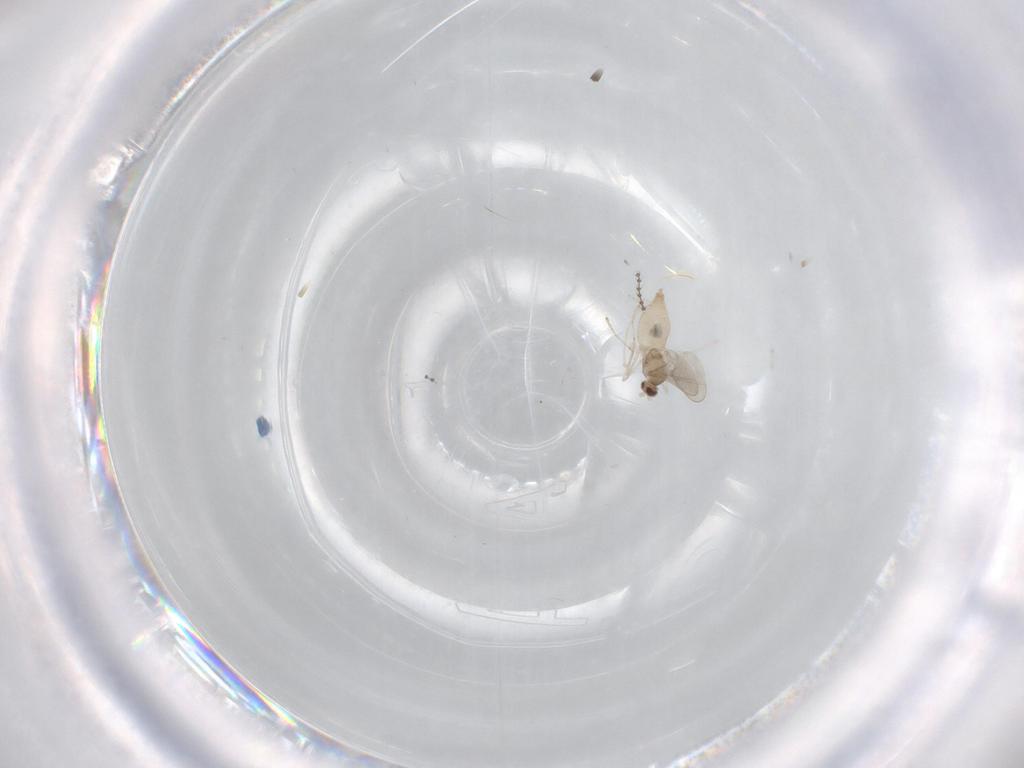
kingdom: Animalia
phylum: Arthropoda
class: Insecta
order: Diptera
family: Cecidomyiidae
